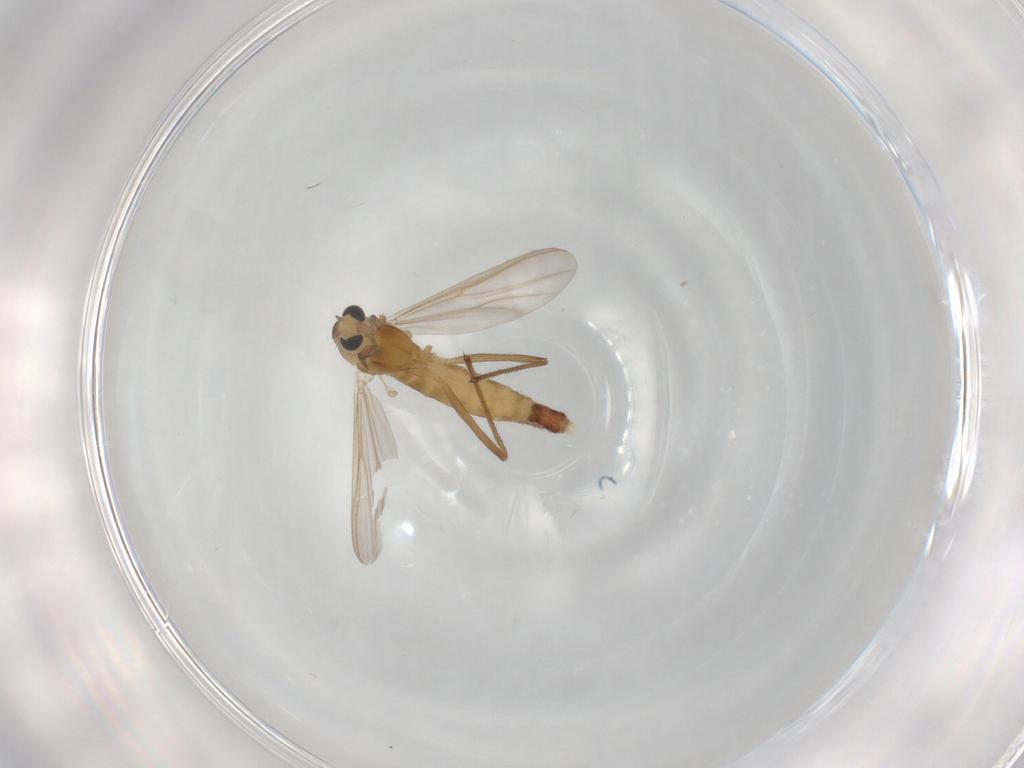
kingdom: Animalia
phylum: Arthropoda
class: Insecta
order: Diptera
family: Chironomidae
